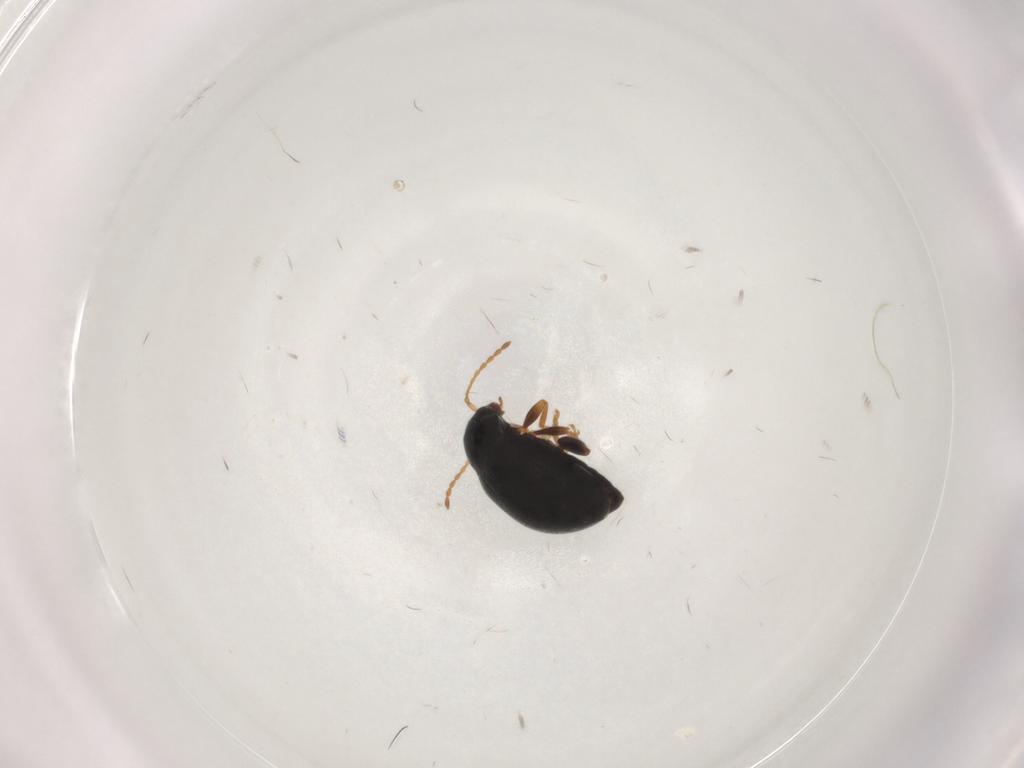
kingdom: Animalia
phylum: Arthropoda
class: Insecta
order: Coleoptera
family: Chrysomelidae
